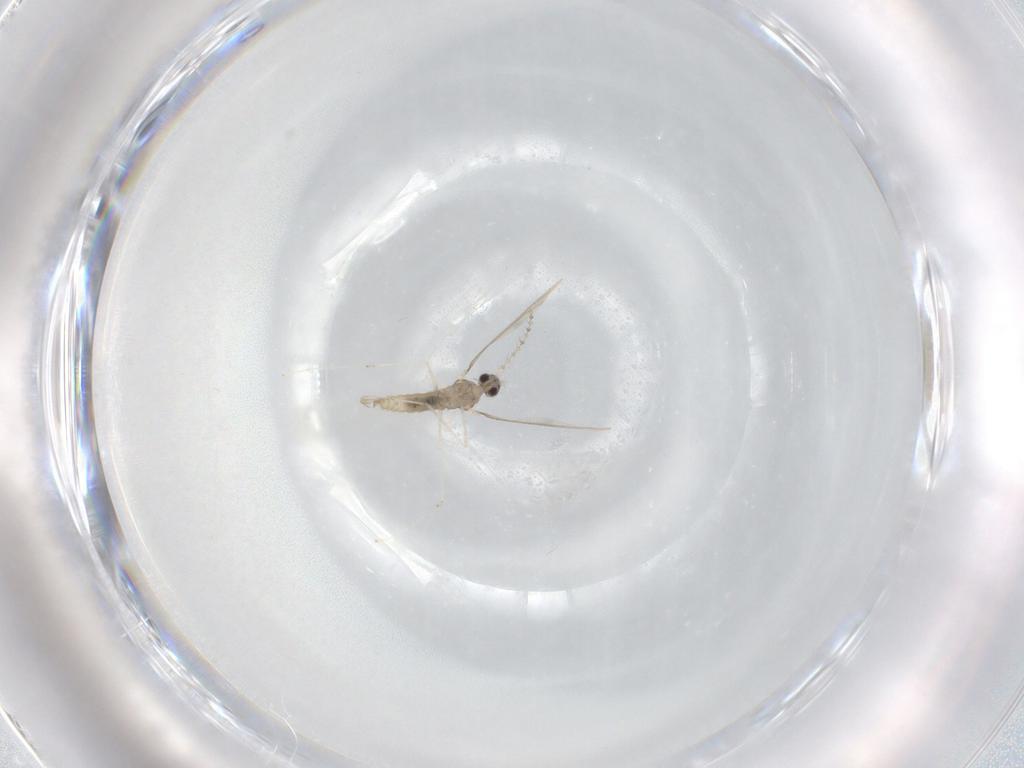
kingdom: Animalia
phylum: Arthropoda
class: Insecta
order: Diptera
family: Cecidomyiidae
